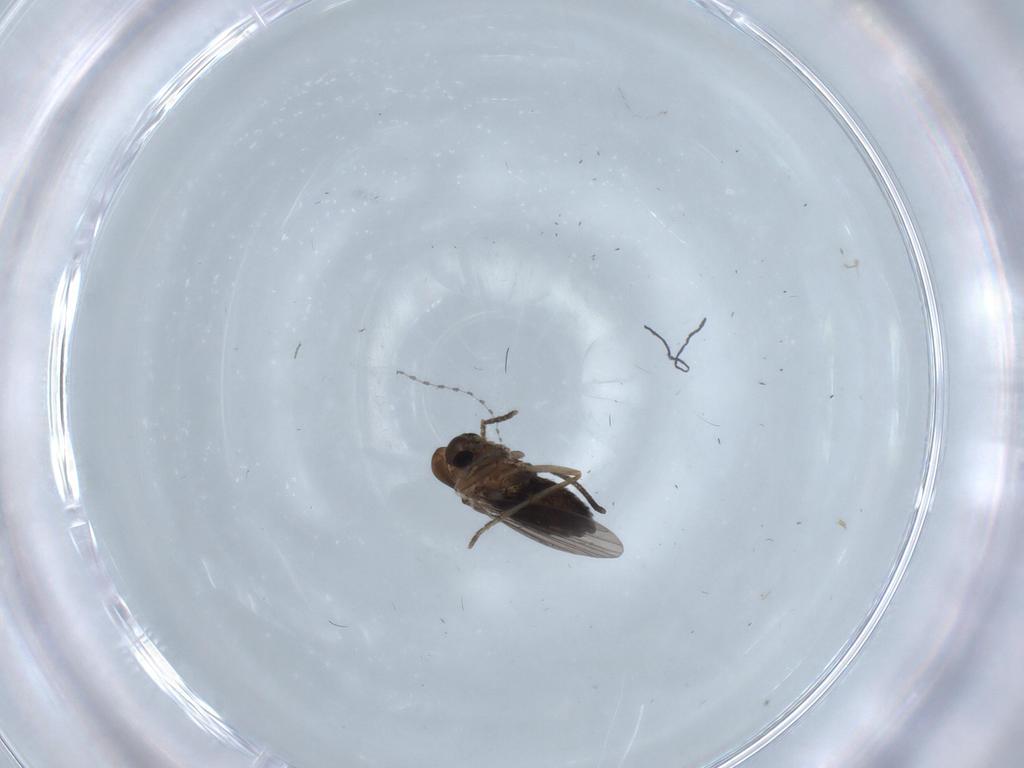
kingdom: Animalia
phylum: Arthropoda
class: Insecta
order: Diptera
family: Cecidomyiidae
